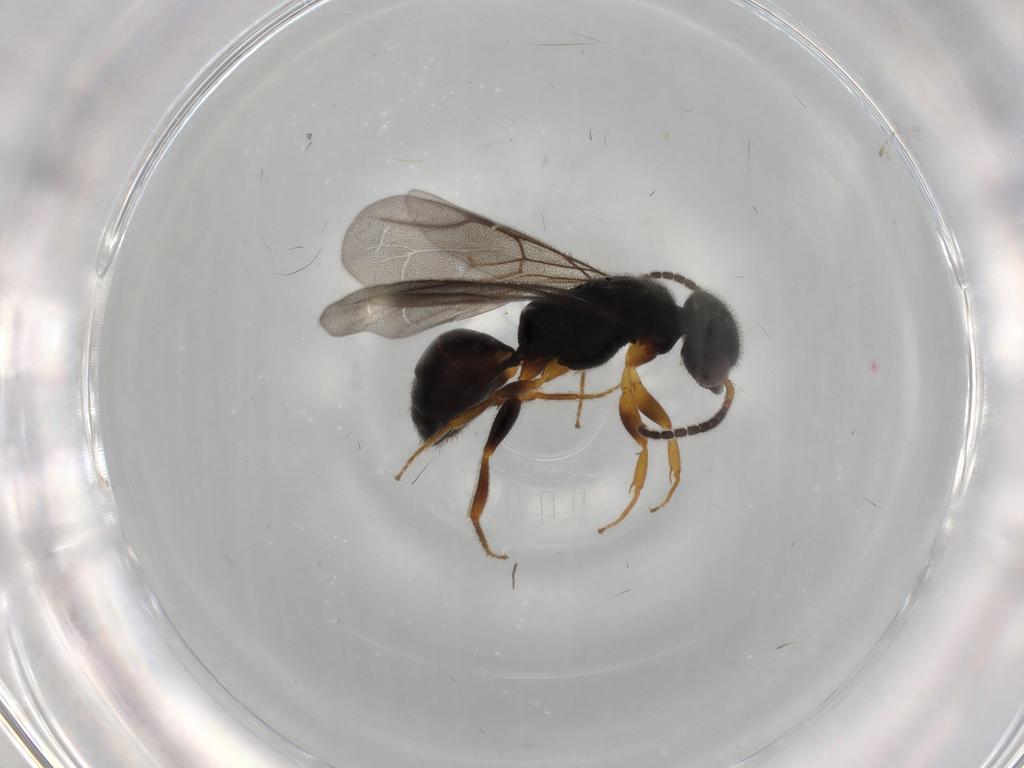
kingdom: Animalia
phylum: Arthropoda
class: Insecta
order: Hymenoptera
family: Bethylidae
